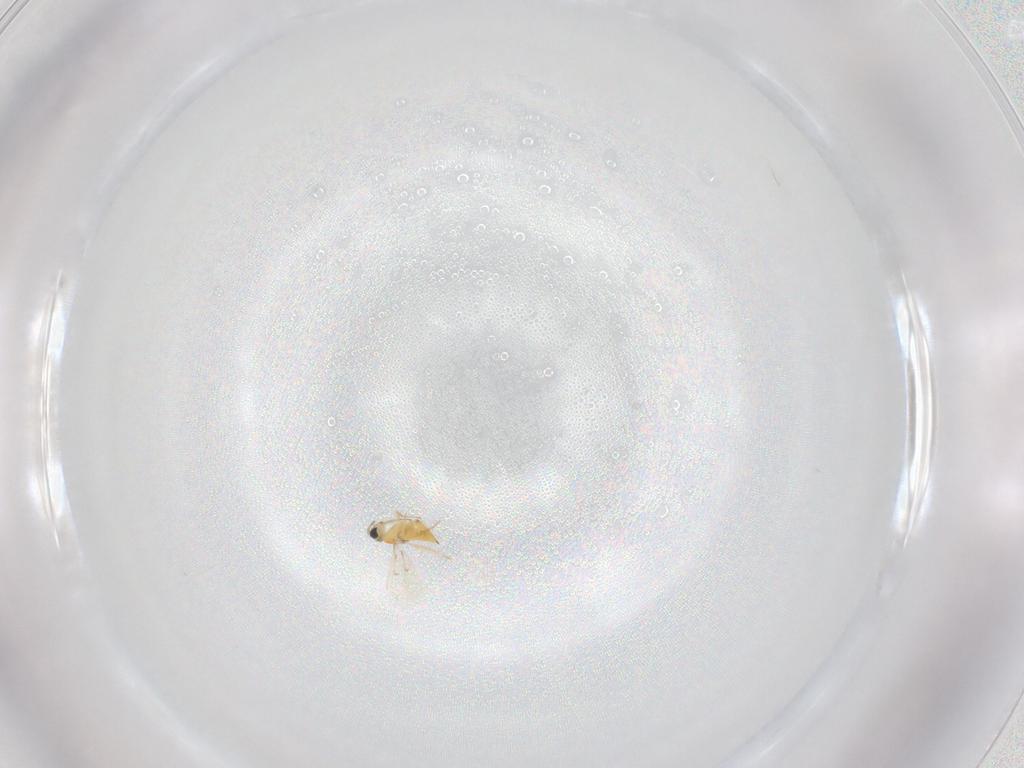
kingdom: Animalia
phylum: Arthropoda
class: Insecta
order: Hymenoptera
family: Trichogrammatidae
